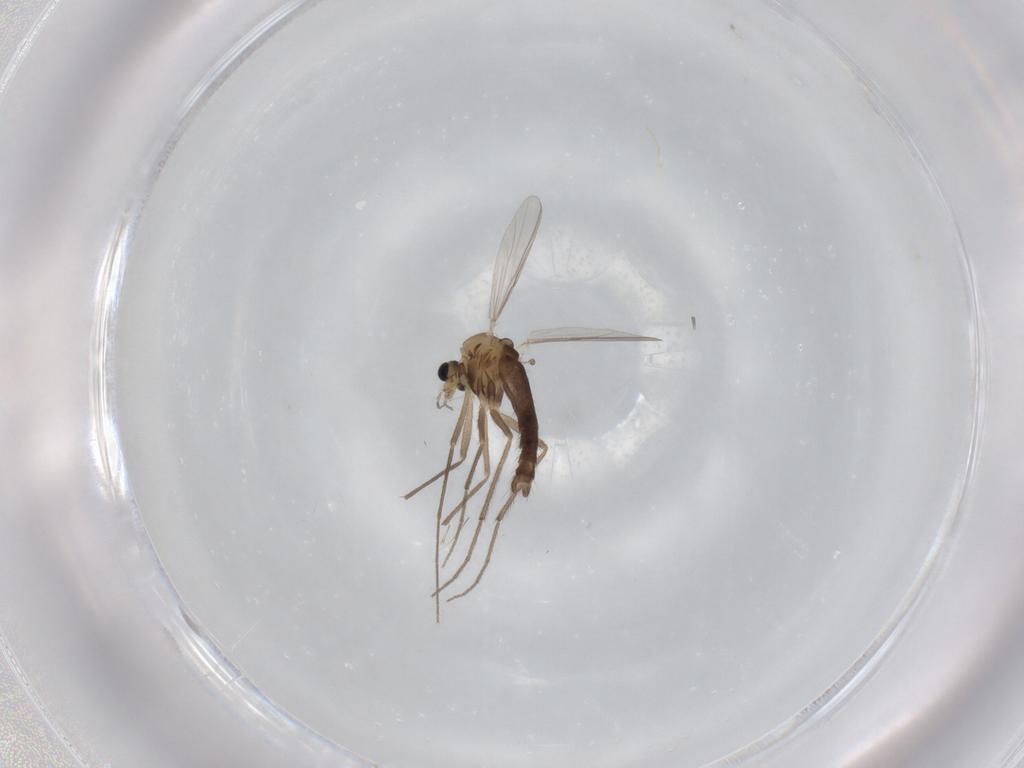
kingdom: Animalia
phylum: Arthropoda
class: Insecta
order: Diptera
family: Chironomidae
